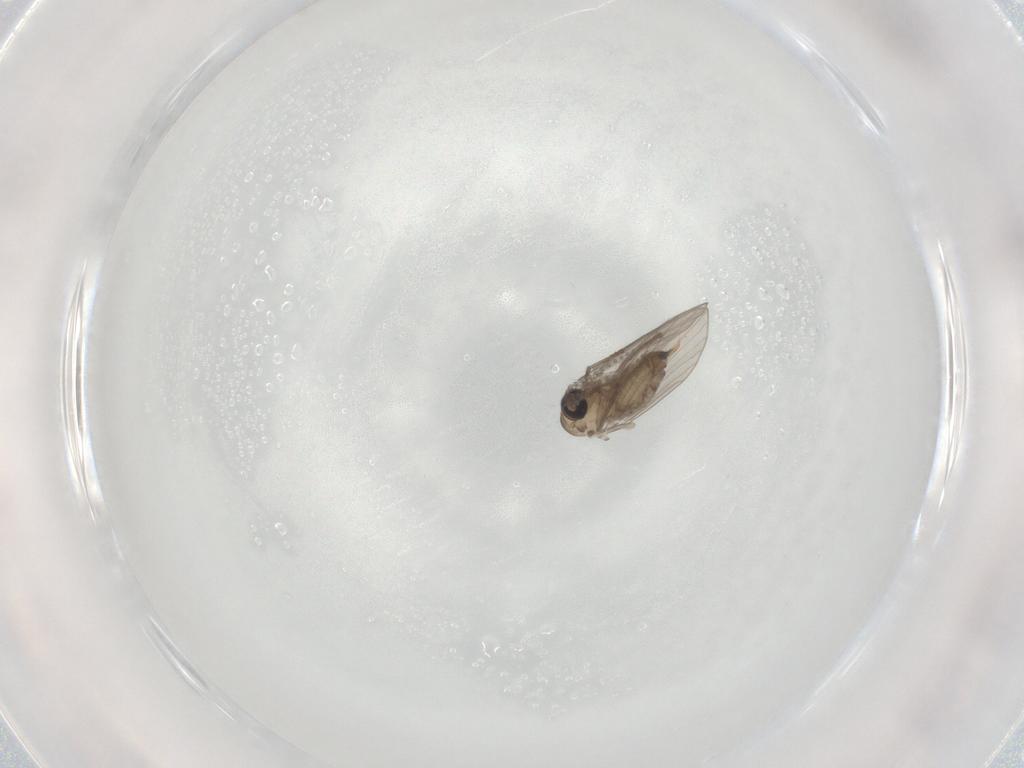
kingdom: Animalia
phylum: Arthropoda
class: Insecta
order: Diptera
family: Psychodidae
